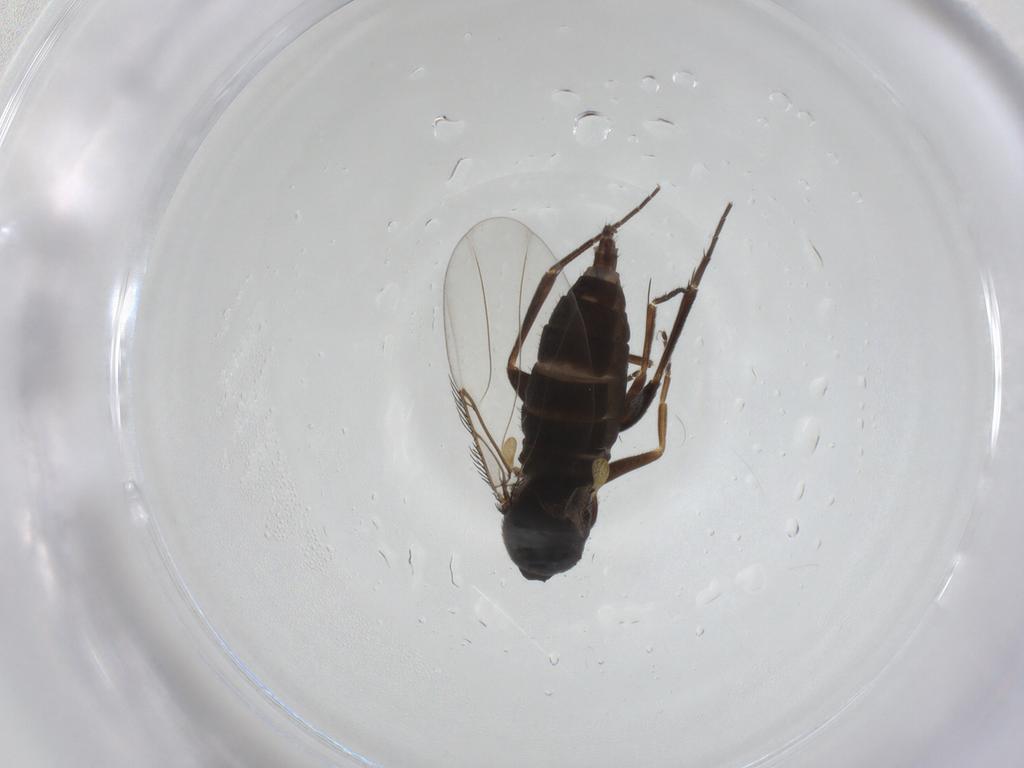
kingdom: Animalia
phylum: Arthropoda
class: Insecta
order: Diptera
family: Phoridae
